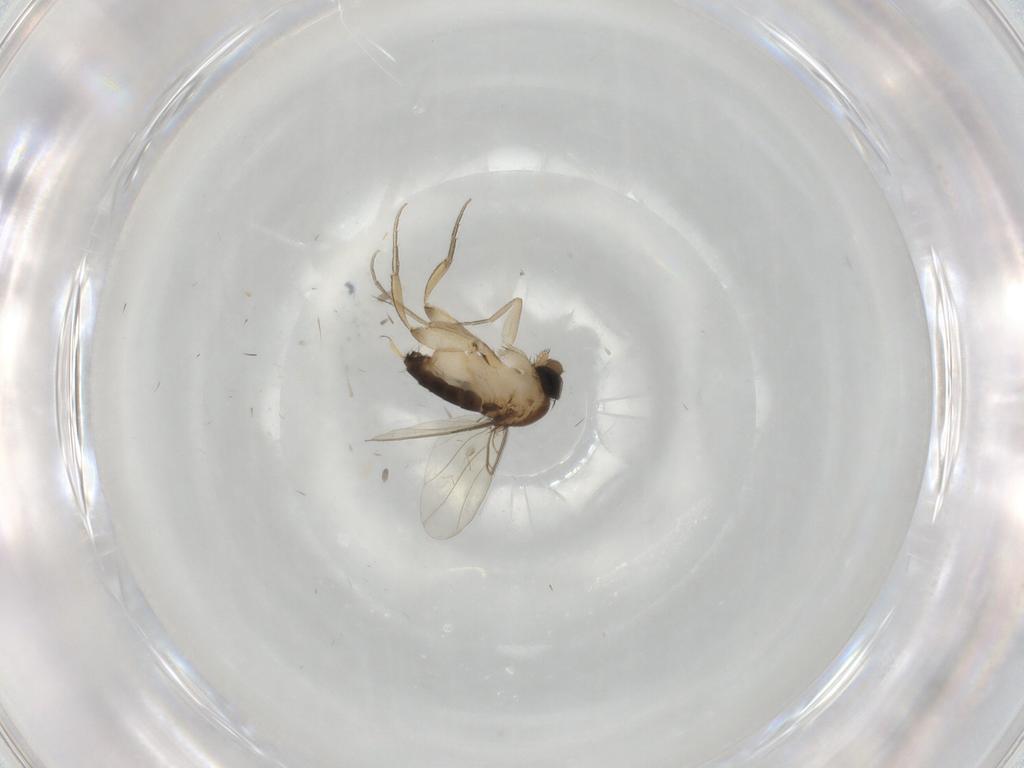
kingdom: Animalia
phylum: Arthropoda
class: Insecta
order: Diptera
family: Phoridae
